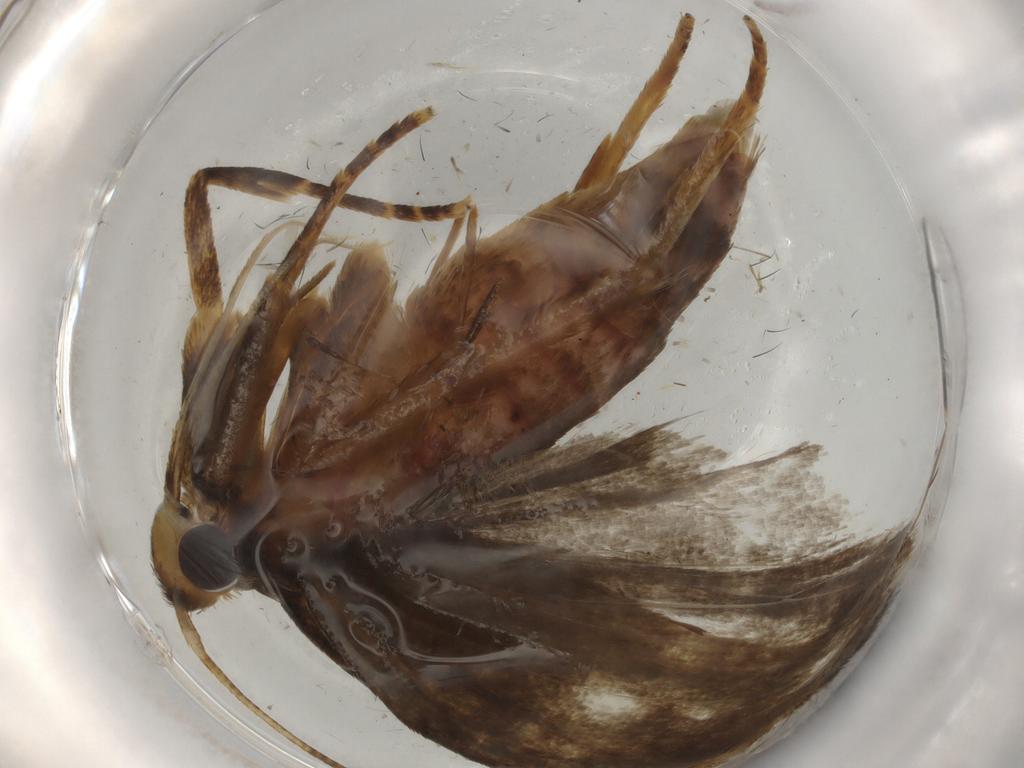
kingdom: Animalia
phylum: Arthropoda
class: Insecta
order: Lepidoptera
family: Autostichidae
